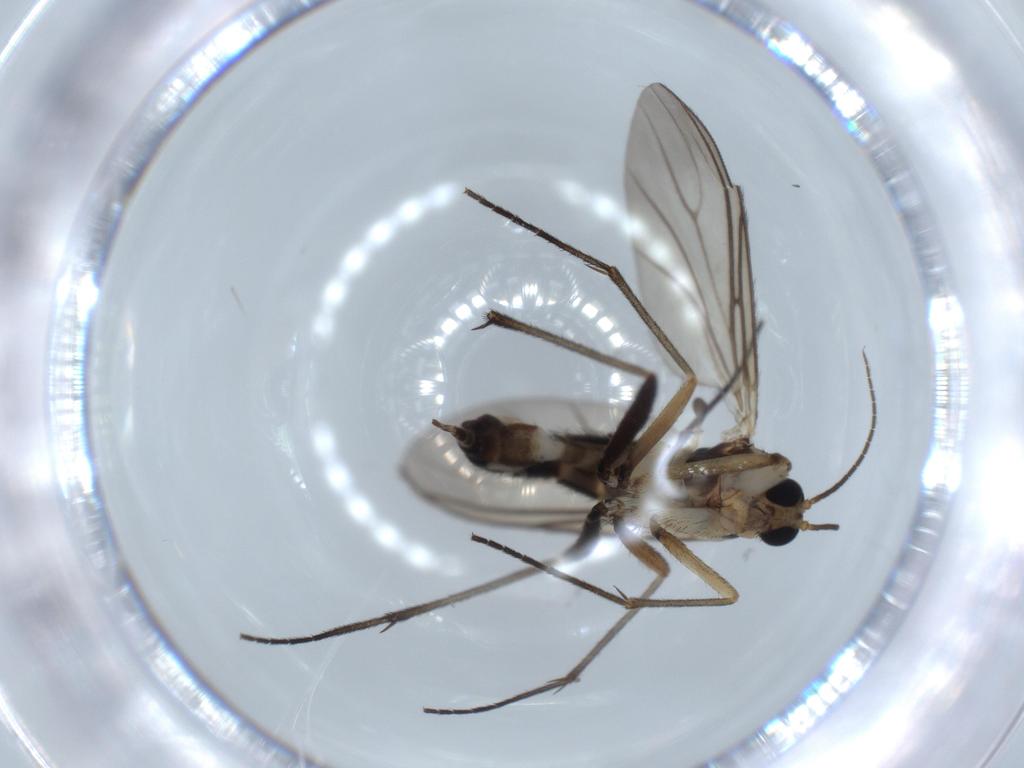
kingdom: Animalia
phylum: Arthropoda
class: Insecta
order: Diptera
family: Sciaridae
